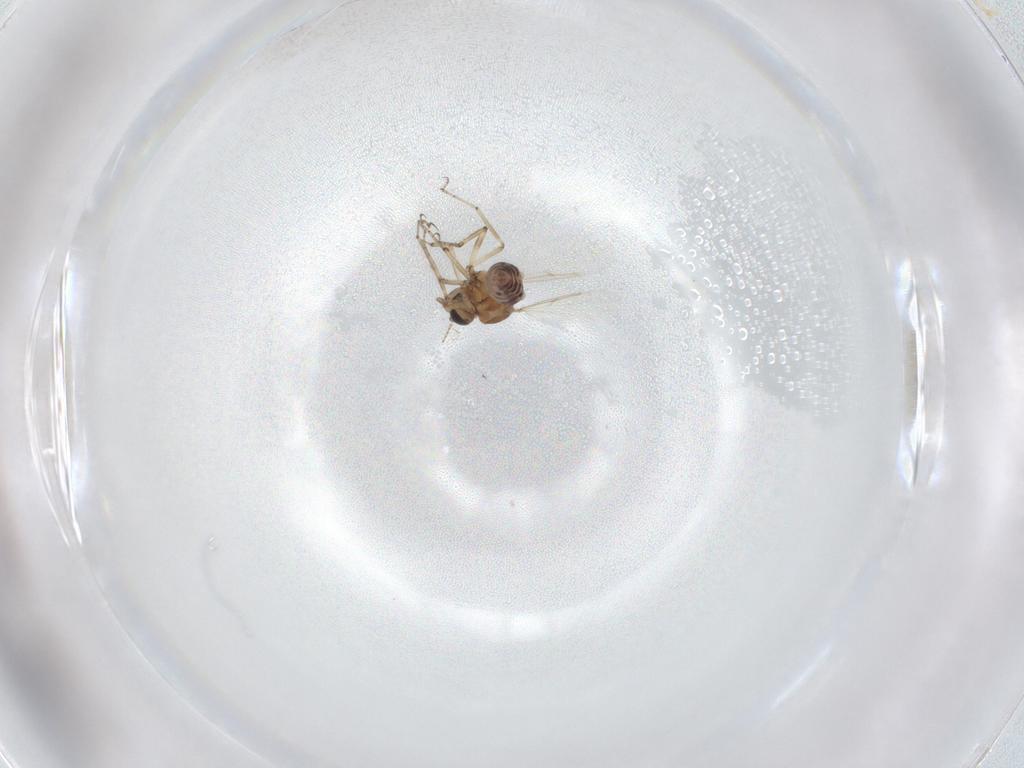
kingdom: Animalia
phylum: Arthropoda
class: Insecta
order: Diptera
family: Ceratopogonidae
